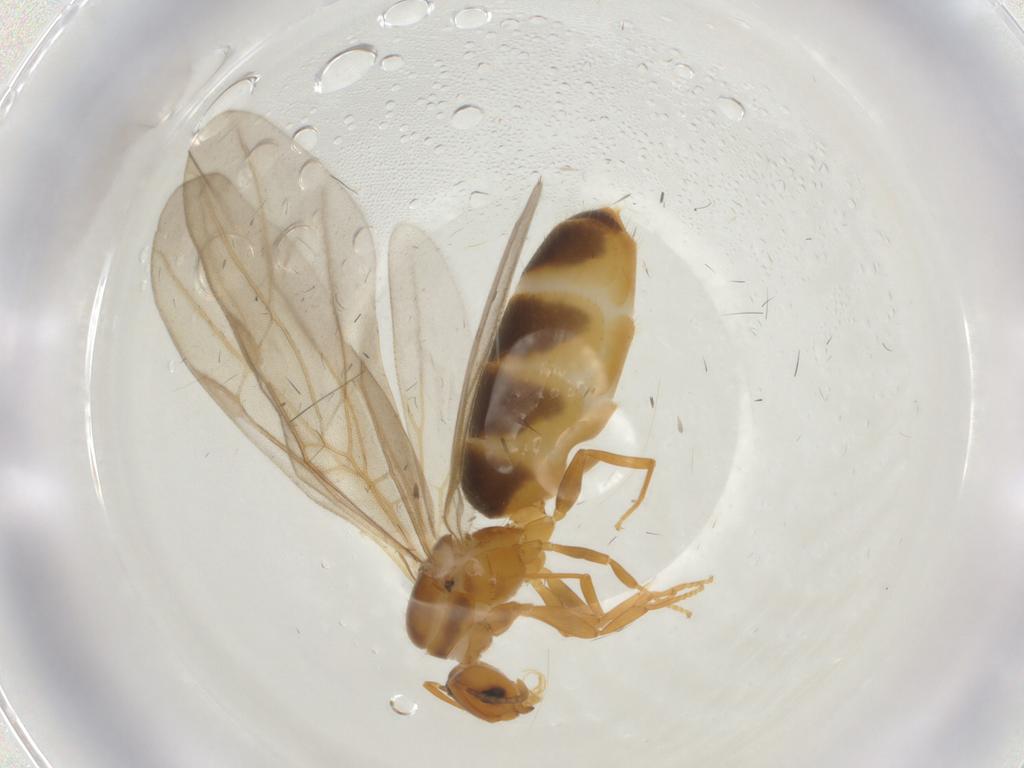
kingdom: Animalia
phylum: Arthropoda
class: Insecta
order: Hymenoptera
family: Formicidae
